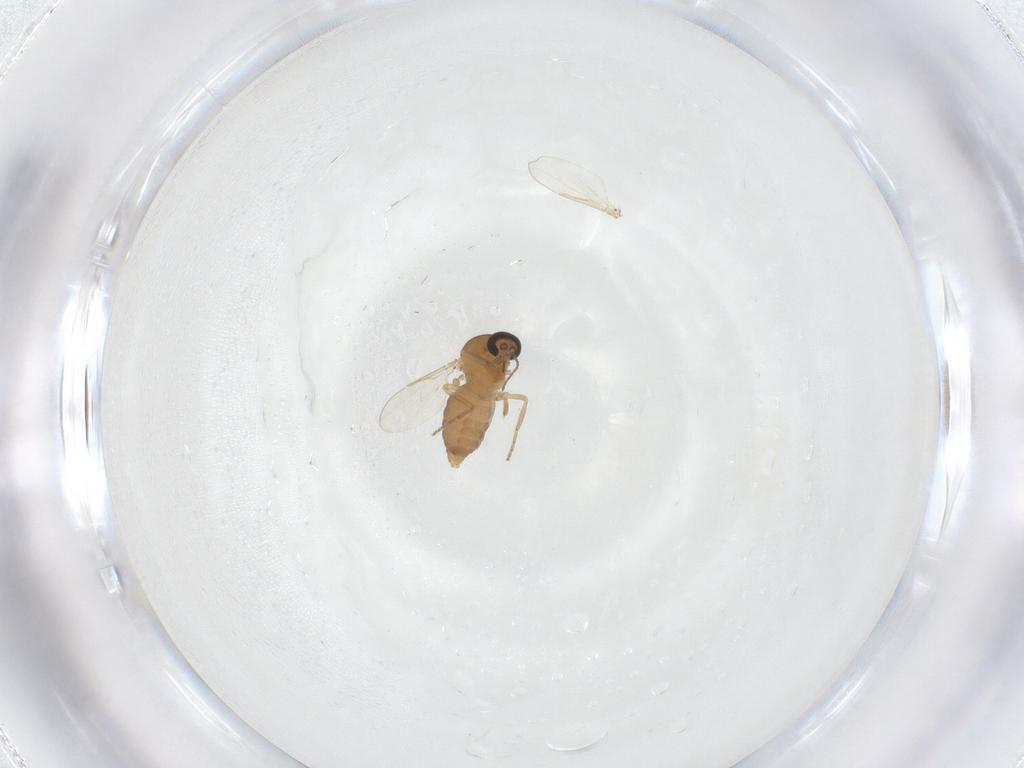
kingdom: Animalia
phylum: Arthropoda
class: Insecta
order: Diptera
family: Ceratopogonidae
